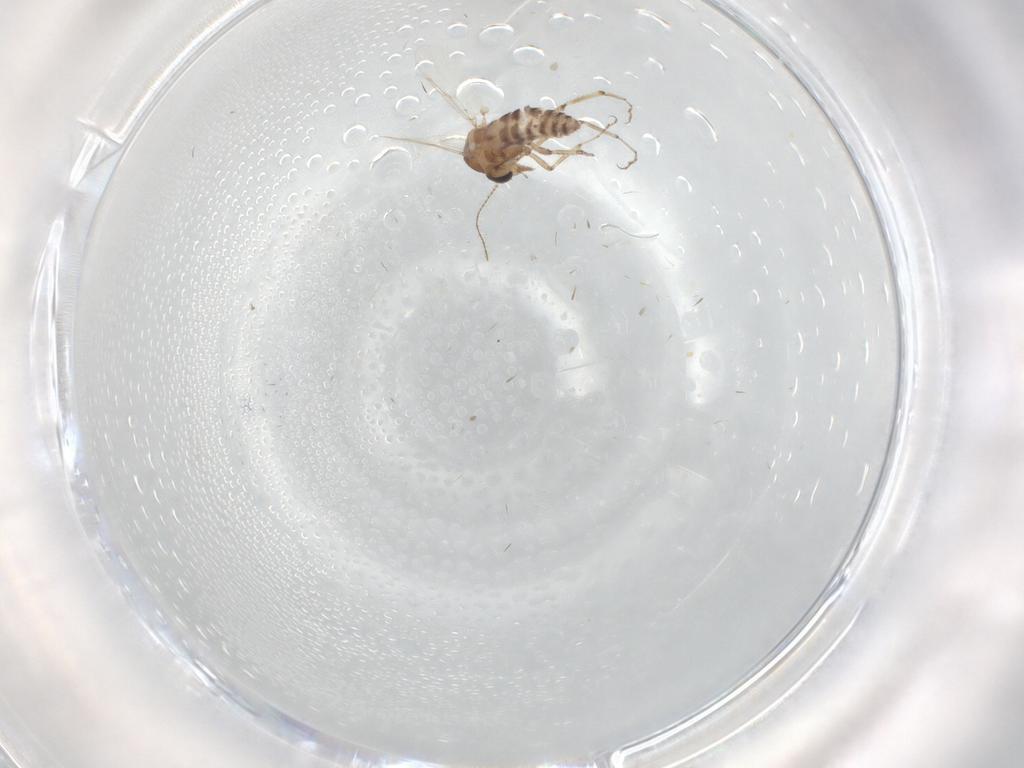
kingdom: Animalia
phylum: Arthropoda
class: Insecta
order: Diptera
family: Ceratopogonidae
